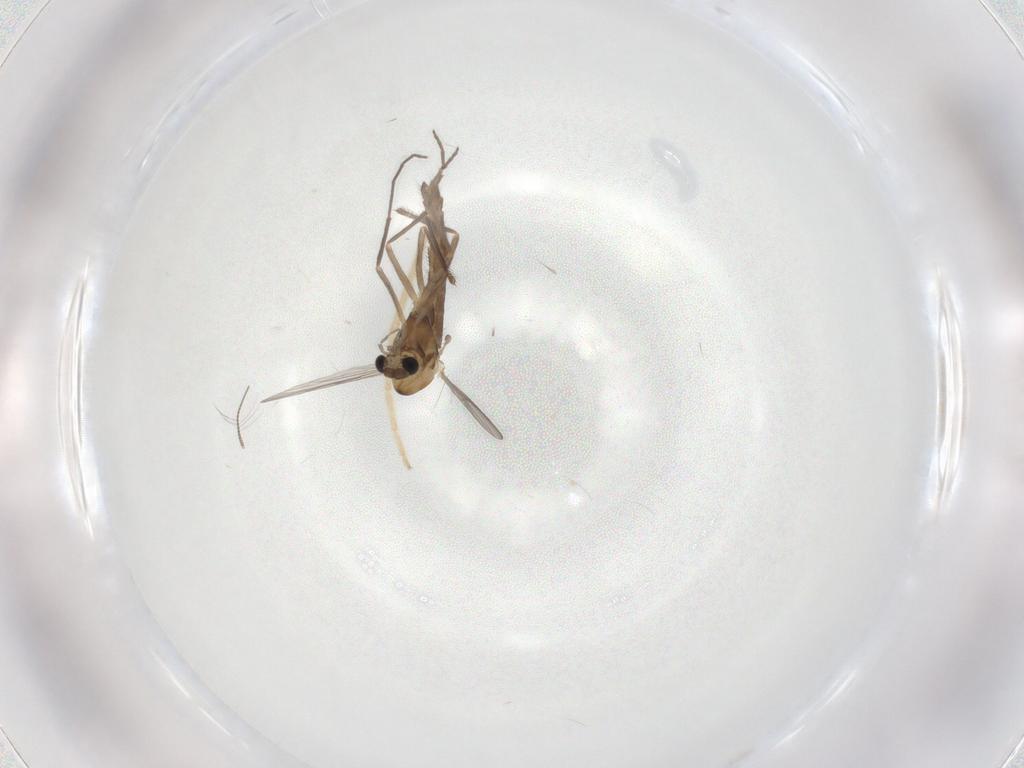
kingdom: Animalia
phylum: Arthropoda
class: Insecta
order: Diptera
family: Chironomidae
